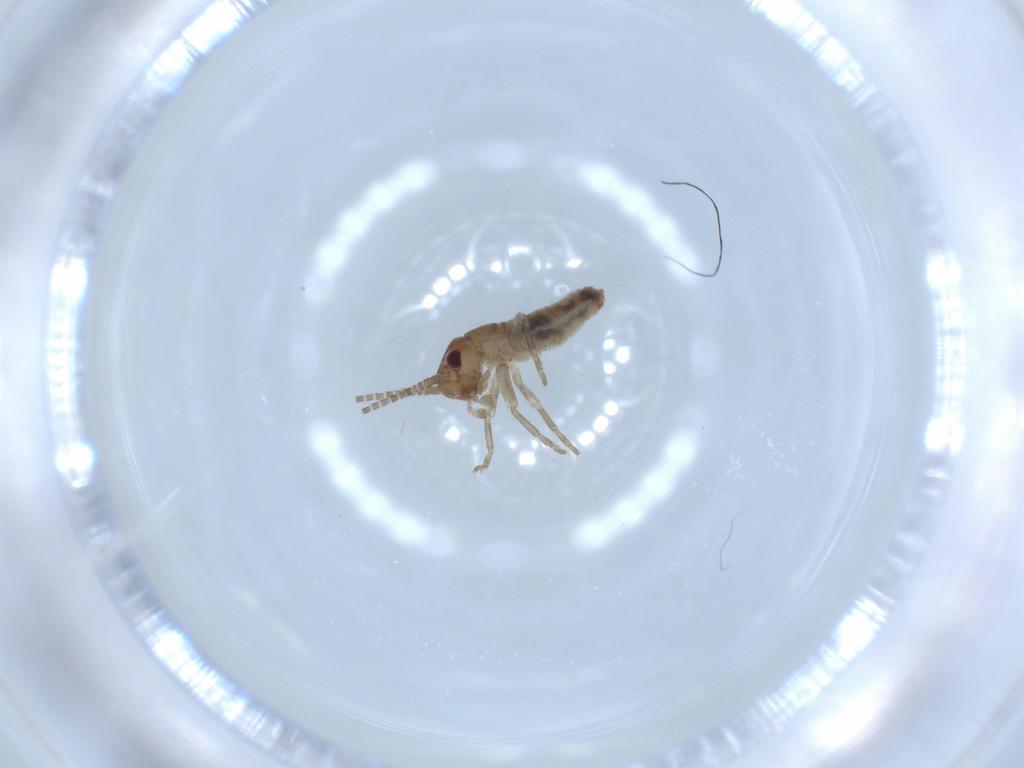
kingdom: Animalia
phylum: Arthropoda
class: Insecta
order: Orthoptera
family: Gryllidae
